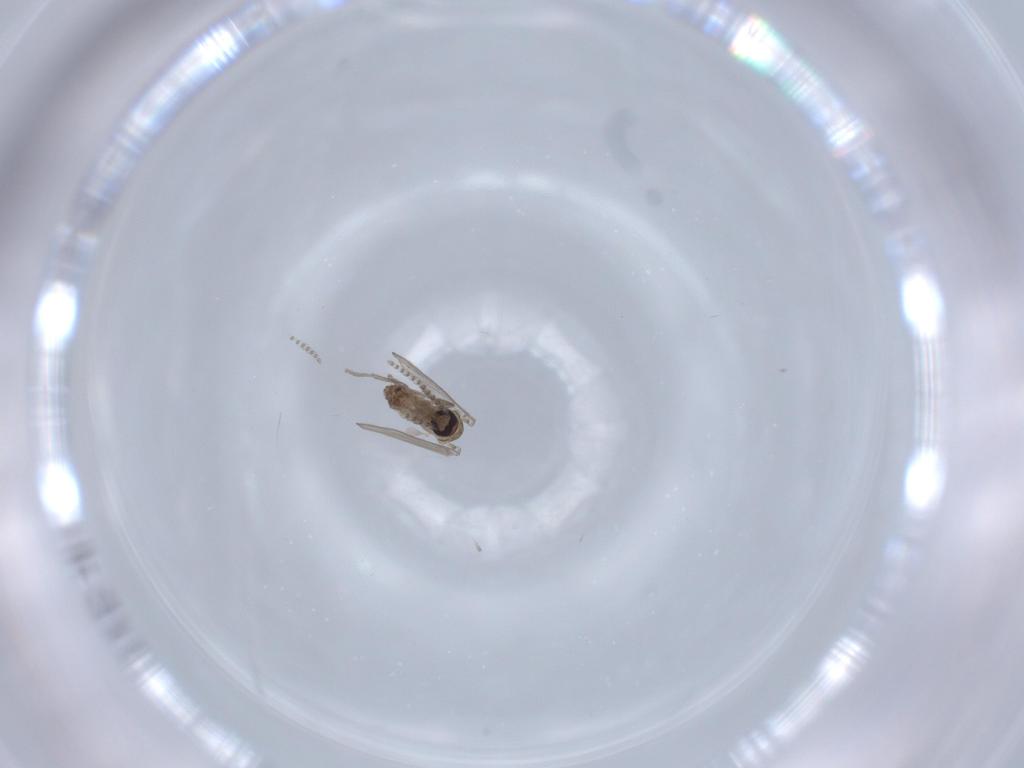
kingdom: Animalia
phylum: Arthropoda
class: Insecta
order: Diptera
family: Psychodidae
